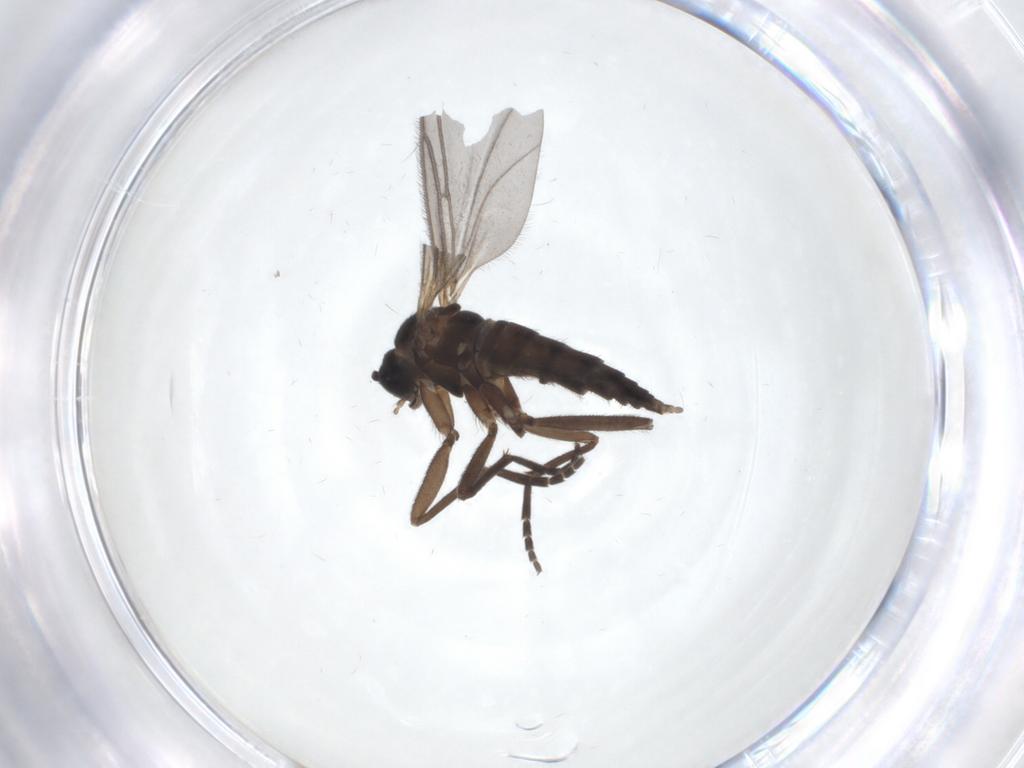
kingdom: Animalia
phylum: Arthropoda
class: Insecta
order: Diptera
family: Sciaridae
